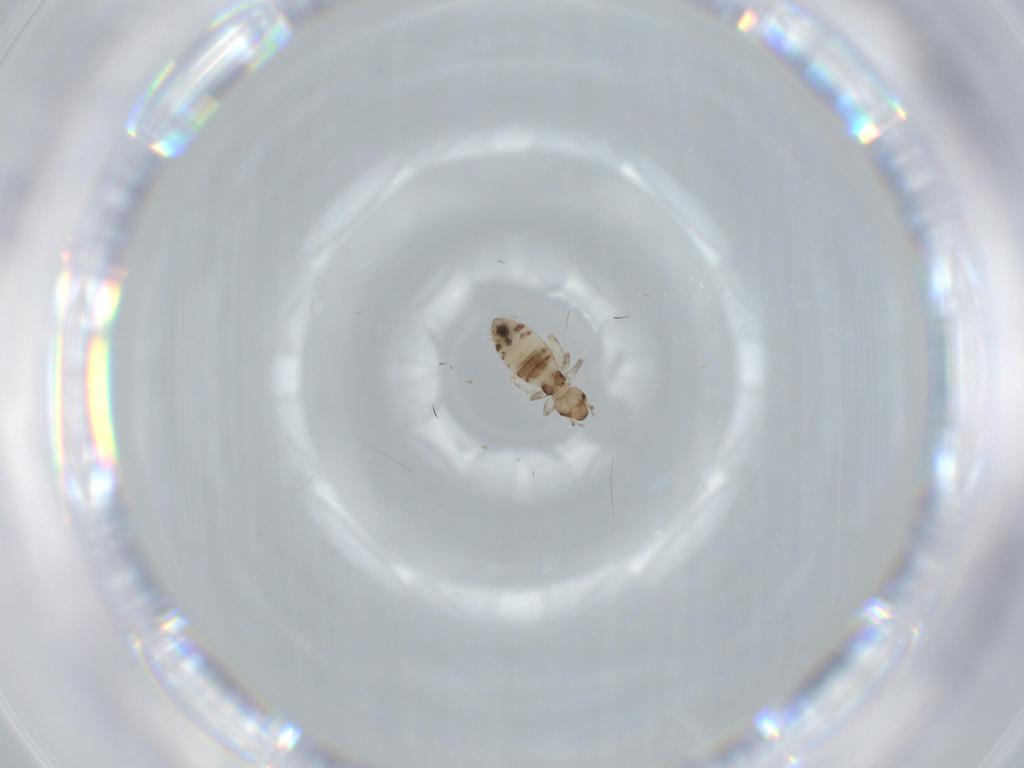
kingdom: Animalia
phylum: Arthropoda
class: Insecta
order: Psocodea
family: Liposcelididae
